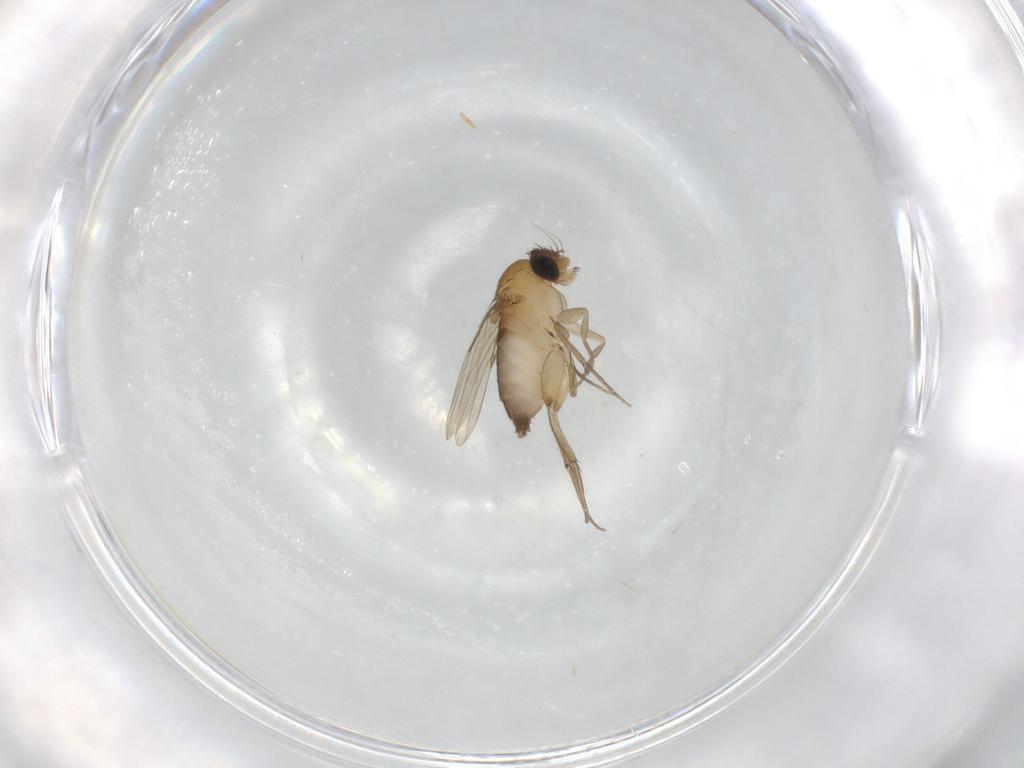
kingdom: Animalia
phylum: Arthropoda
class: Insecta
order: Diptera
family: Phoridae
